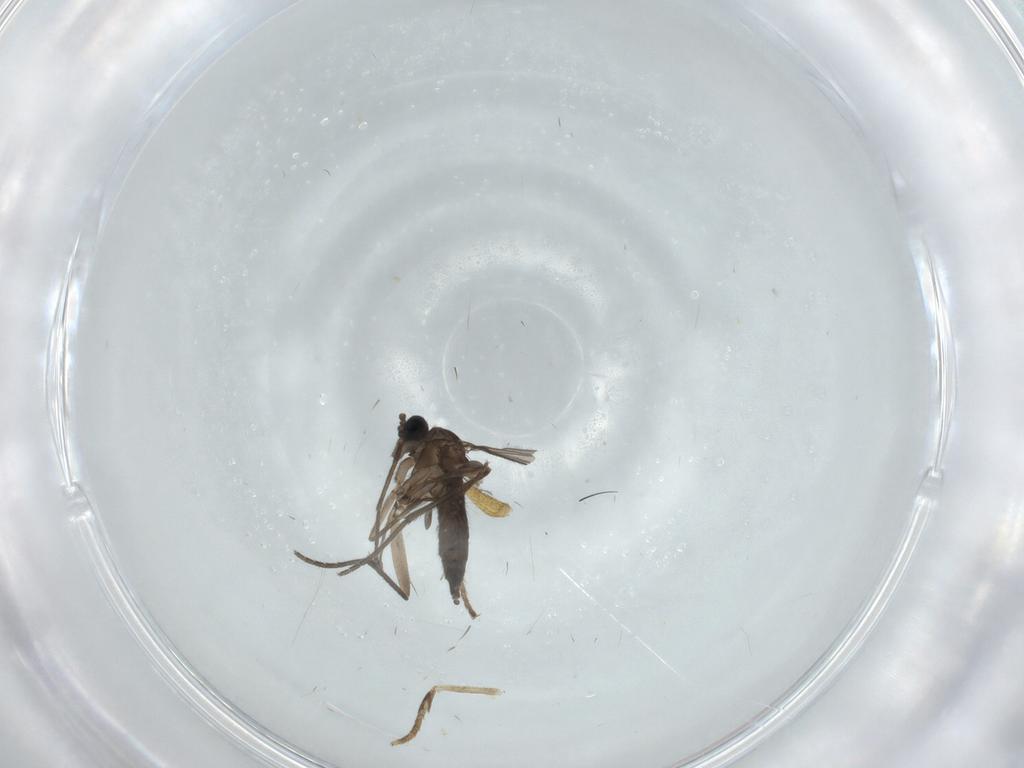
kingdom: Animalia
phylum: Arthropoda
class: Insecta
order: Diptera
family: Sciaridae
